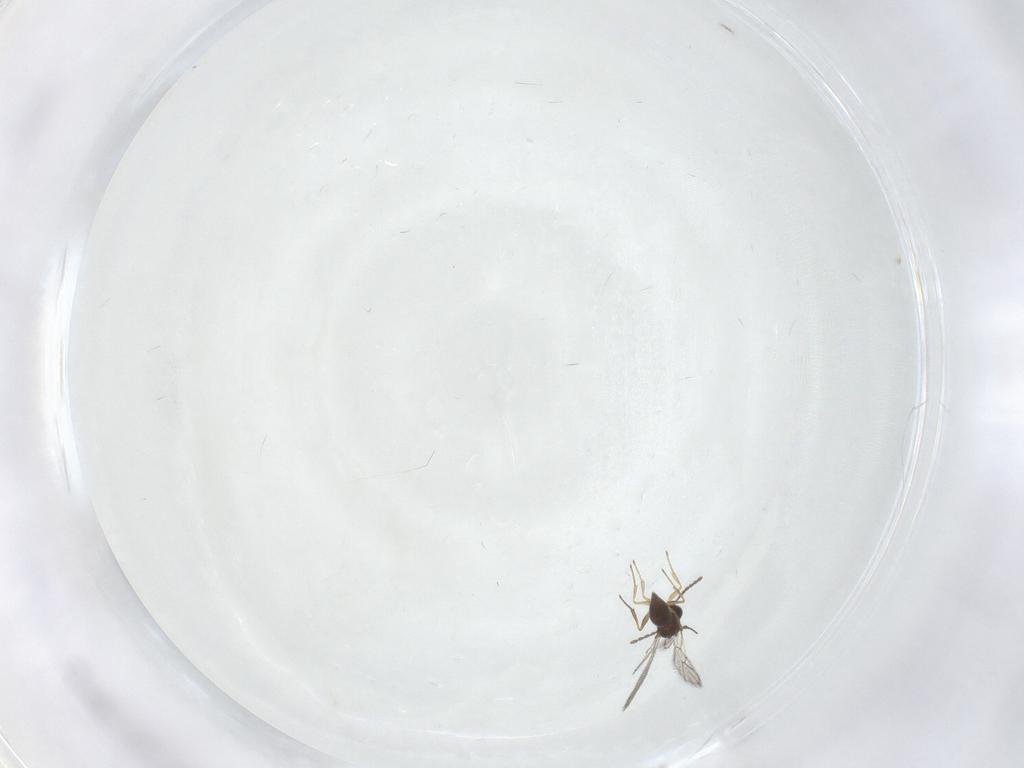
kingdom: Animalia
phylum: Arthropoda
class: Insecta
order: Hymenoptera
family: Figitidae
